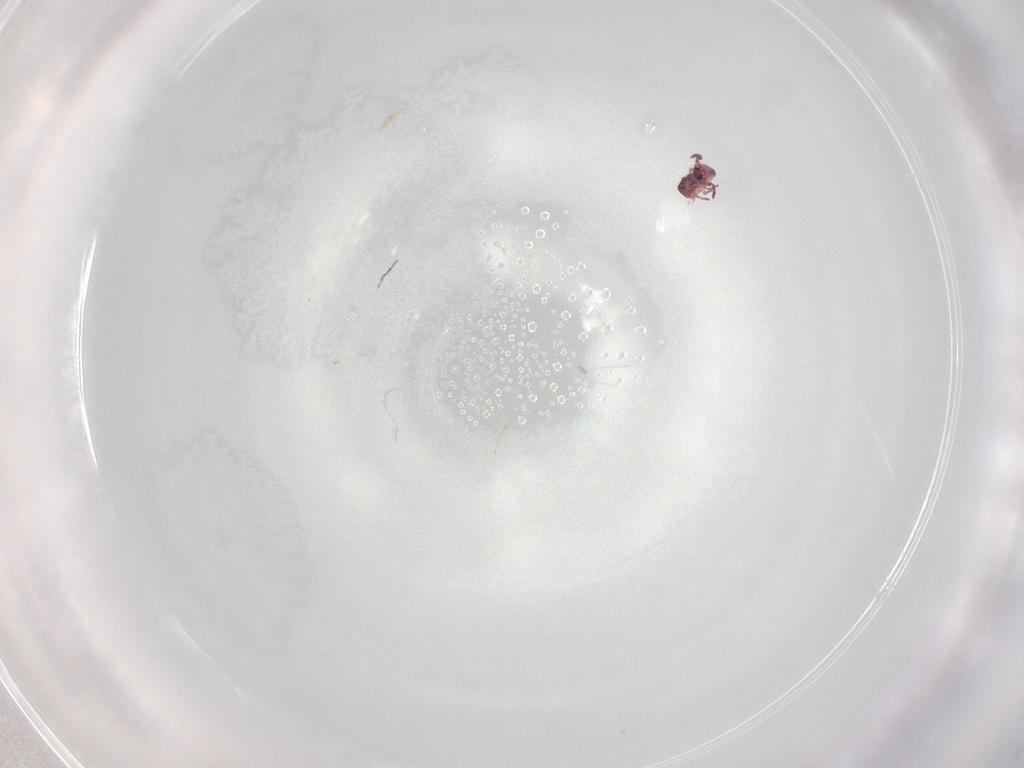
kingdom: Animalia
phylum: Arthropoda
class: Collembola
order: Symphypleona
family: Sminthurididae
